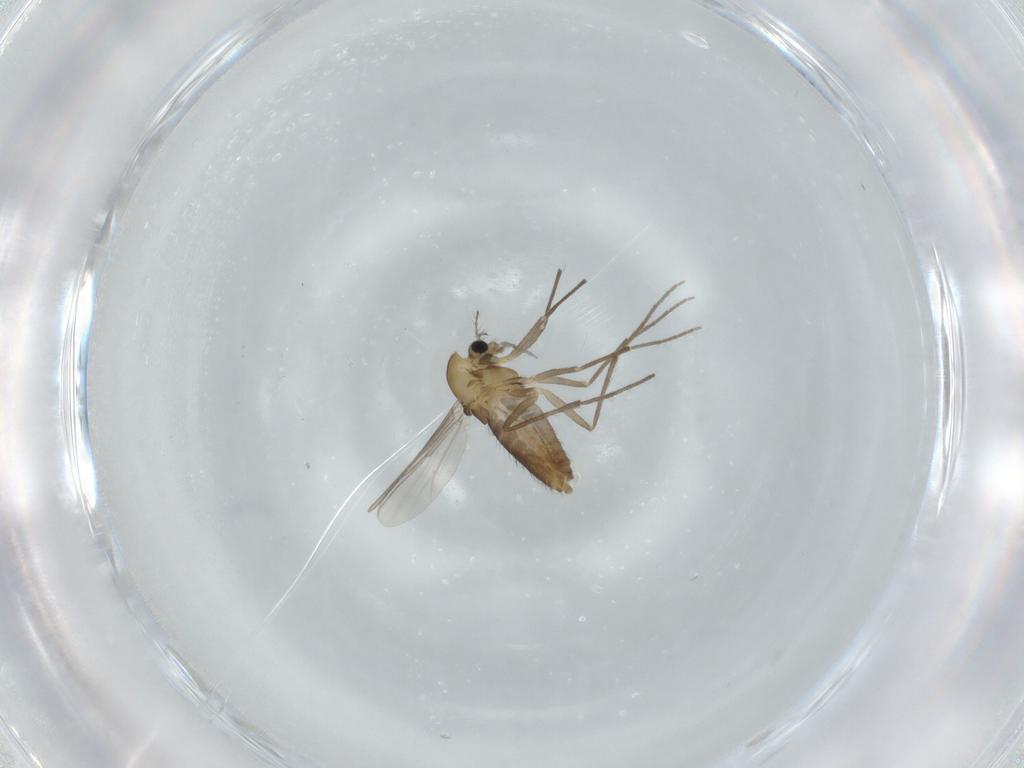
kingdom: Animalia
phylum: Arthropoda
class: Insecta
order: Diptera
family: Chironomidae
